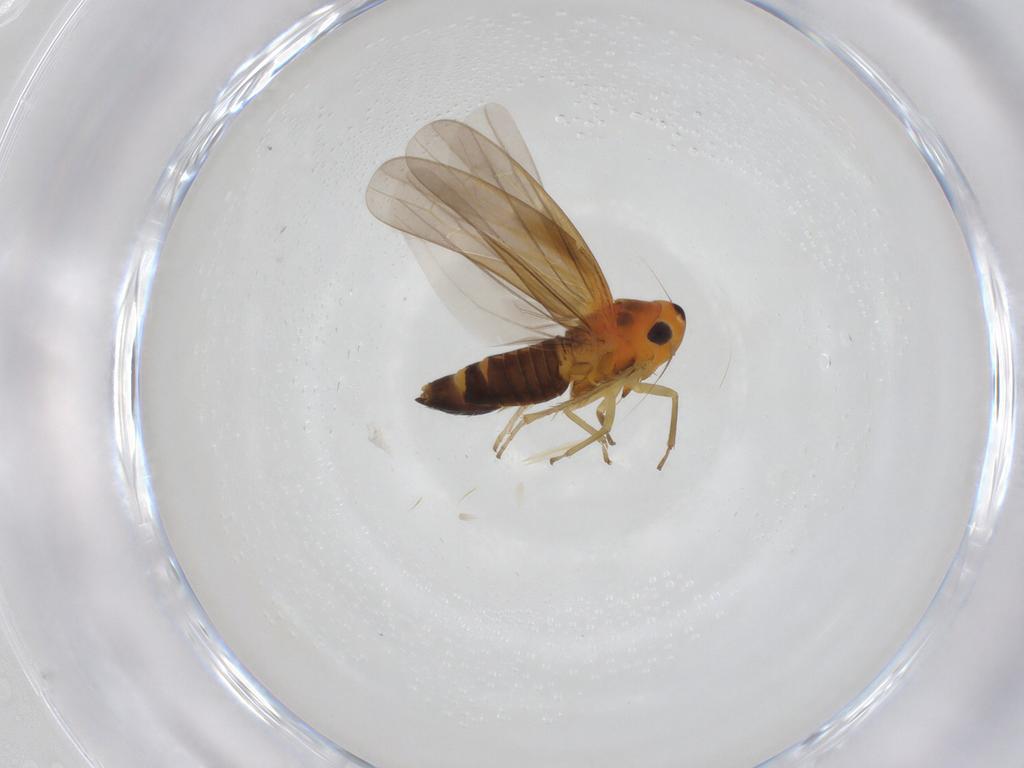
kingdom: Animalia
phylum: Arthropoda
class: Insecta
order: Hemiptera
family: Cicadellidae
